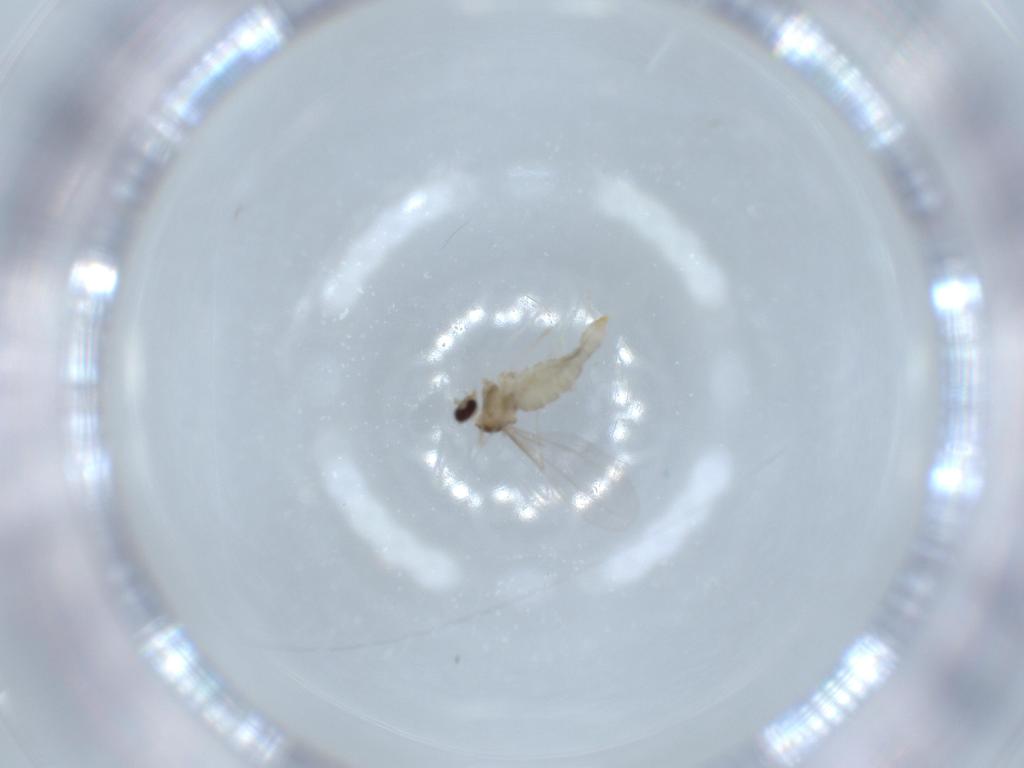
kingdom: Animalia
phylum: Arthropoda
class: Insecta
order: Diptera
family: Cecidomyiidae
